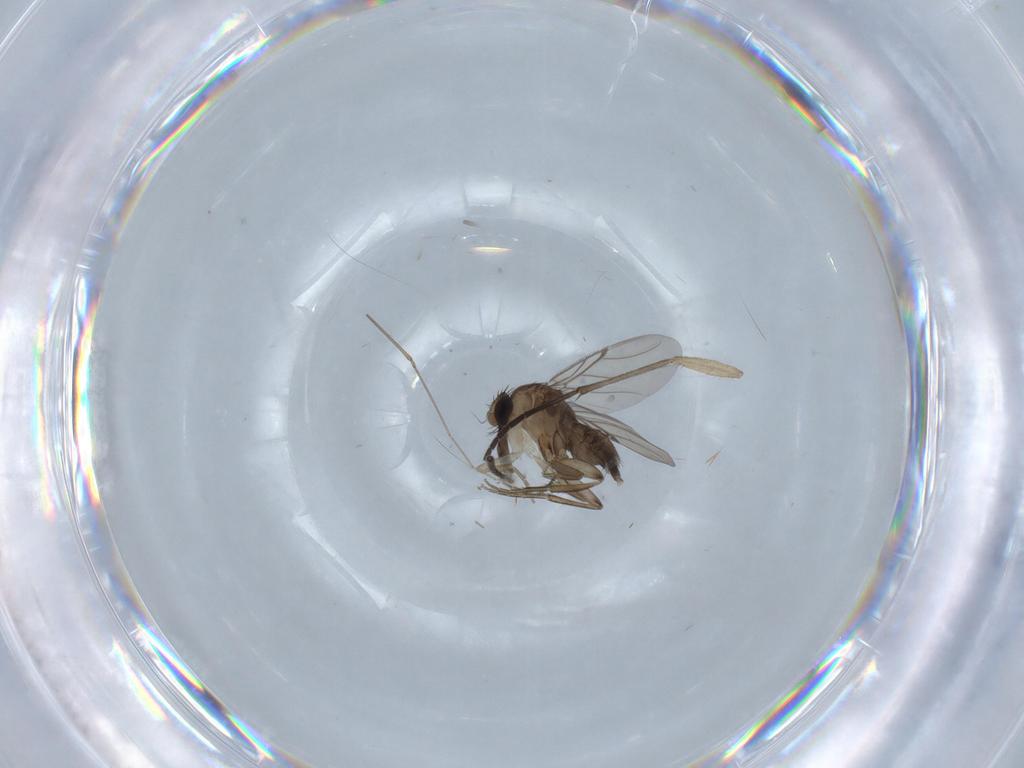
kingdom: Animalia
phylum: Arthropoda
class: Insecta
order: Diptera
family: Phoridae
